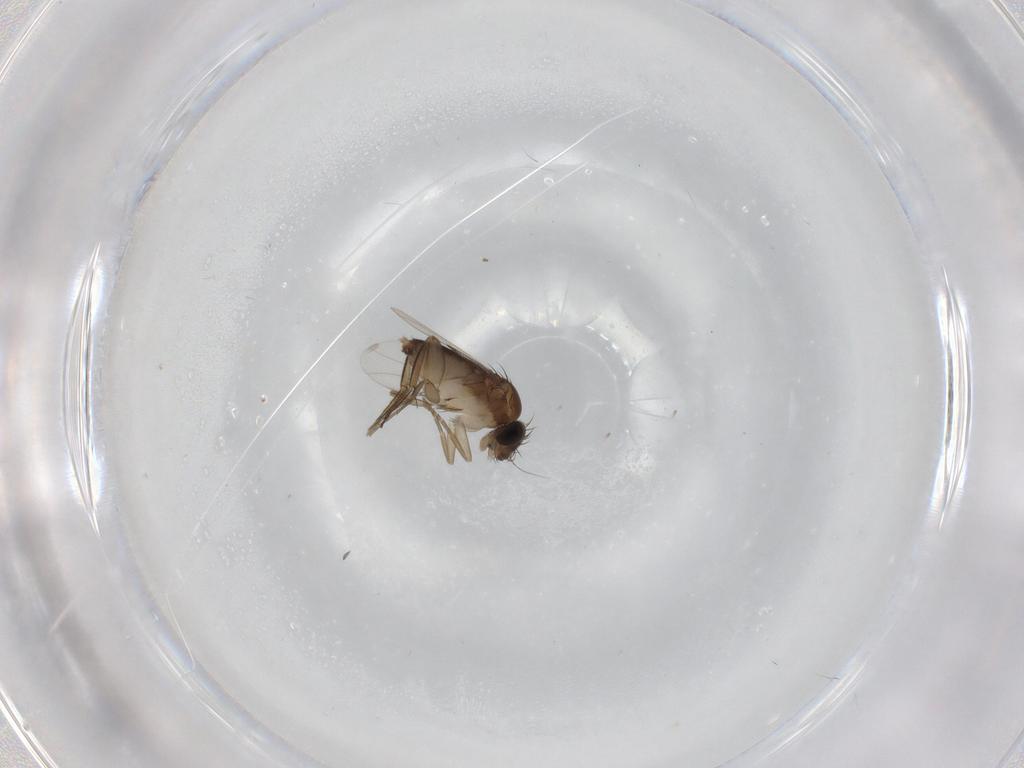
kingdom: Animalia
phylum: Arthropoda
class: Insecta
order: Diptera
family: Phoridae
